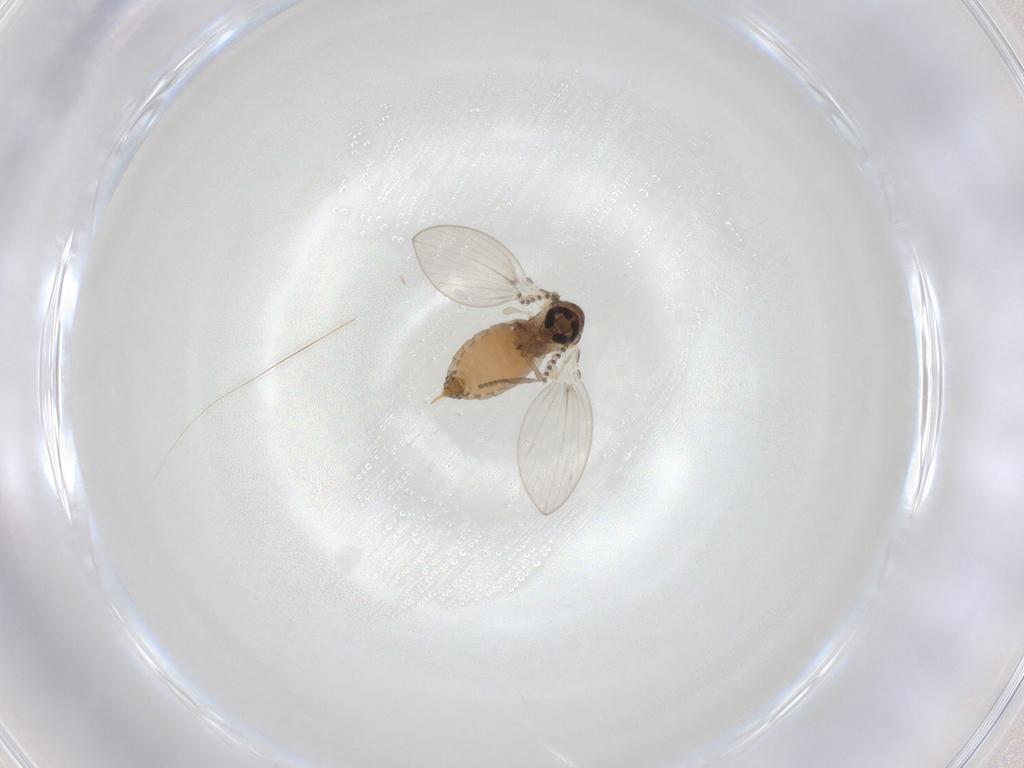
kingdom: Animalia
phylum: Arthropoda
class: Insecta
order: Diptera
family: Psychodidae
